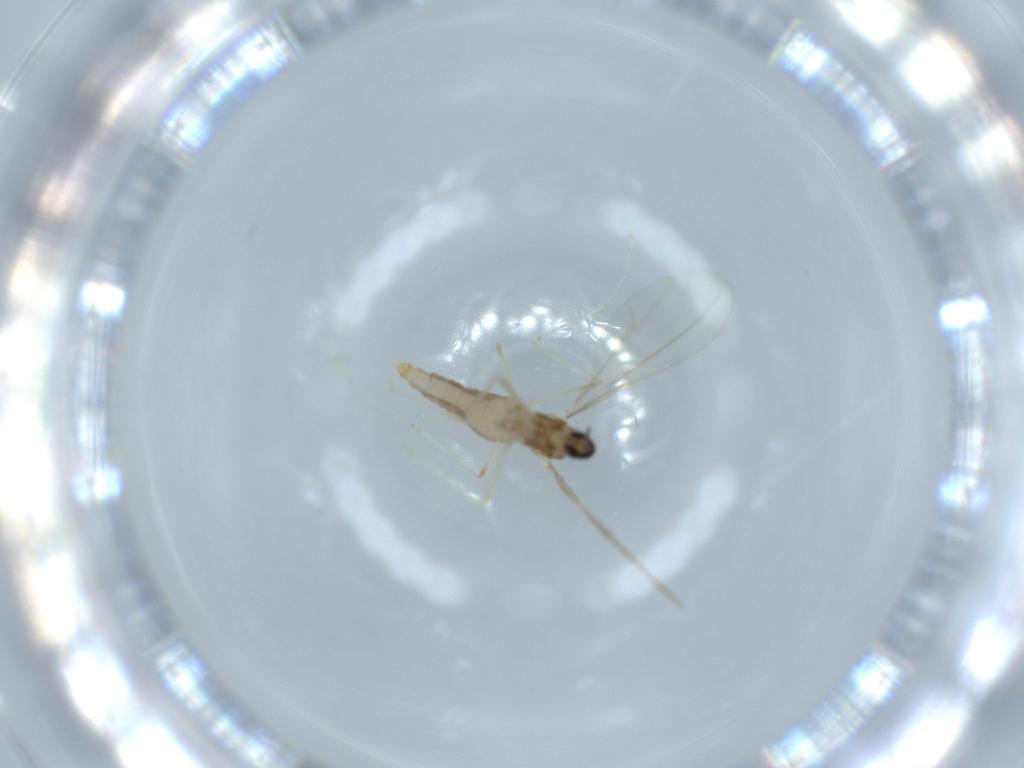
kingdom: Animalia
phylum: Arthropoda
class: Insecta
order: Diptera
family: Cecidomyiidae
